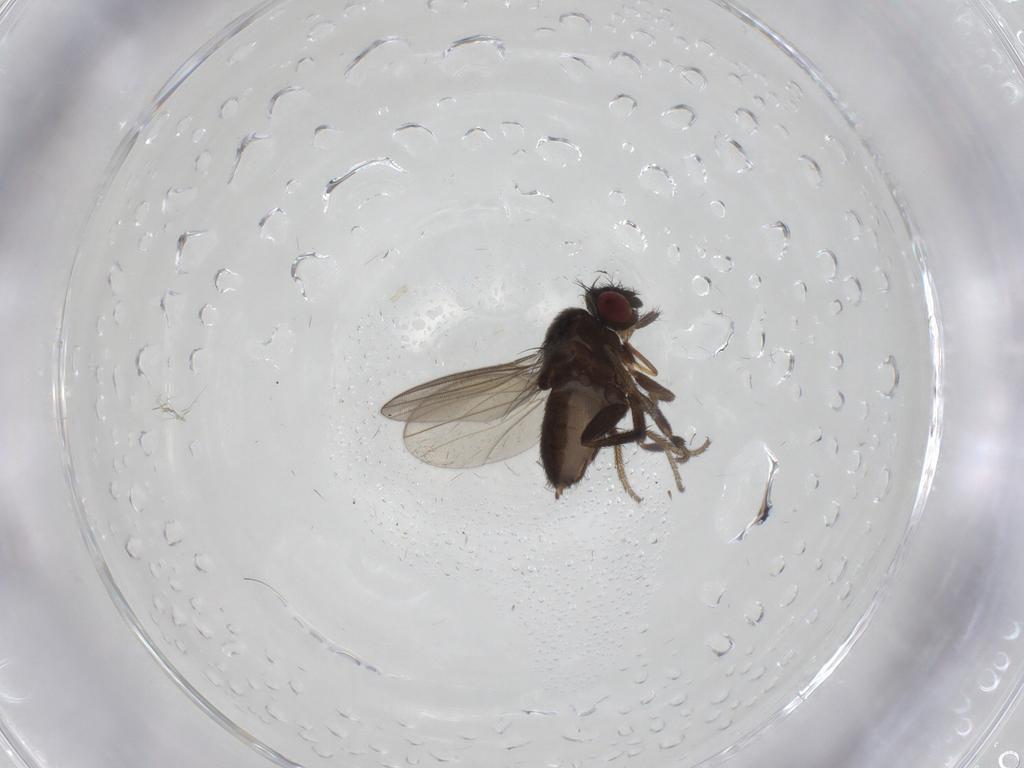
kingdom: Animalia
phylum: Arthropoda
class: Insecta
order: Diptera
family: Milichiidae
